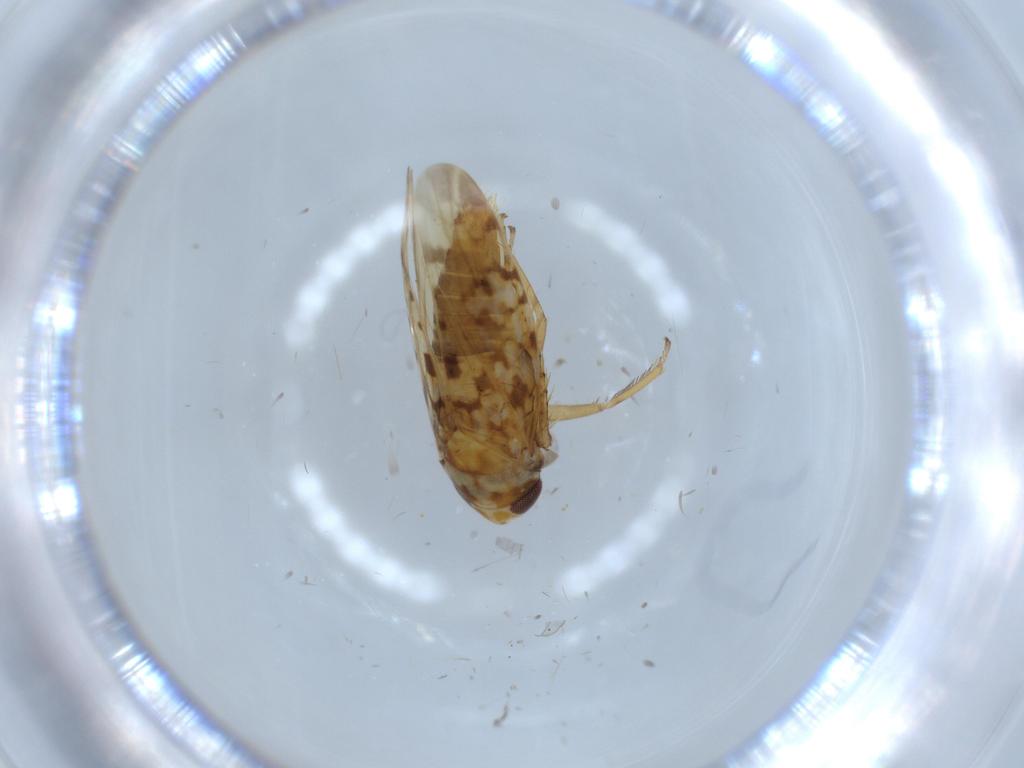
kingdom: Animalia
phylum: Arthropoda
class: Insecta
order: Hemiptera
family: Cicadellidae
